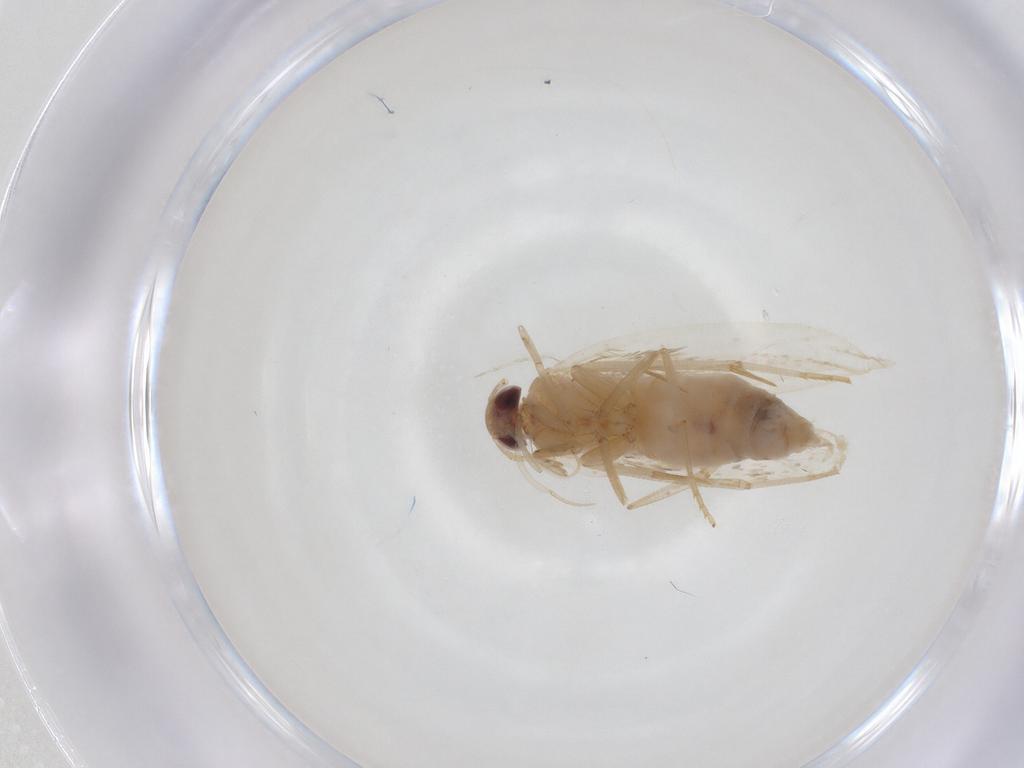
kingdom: Animalia
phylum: Arthropoda
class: Insecta
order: Lepidoptera
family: Cosmopterigidae
